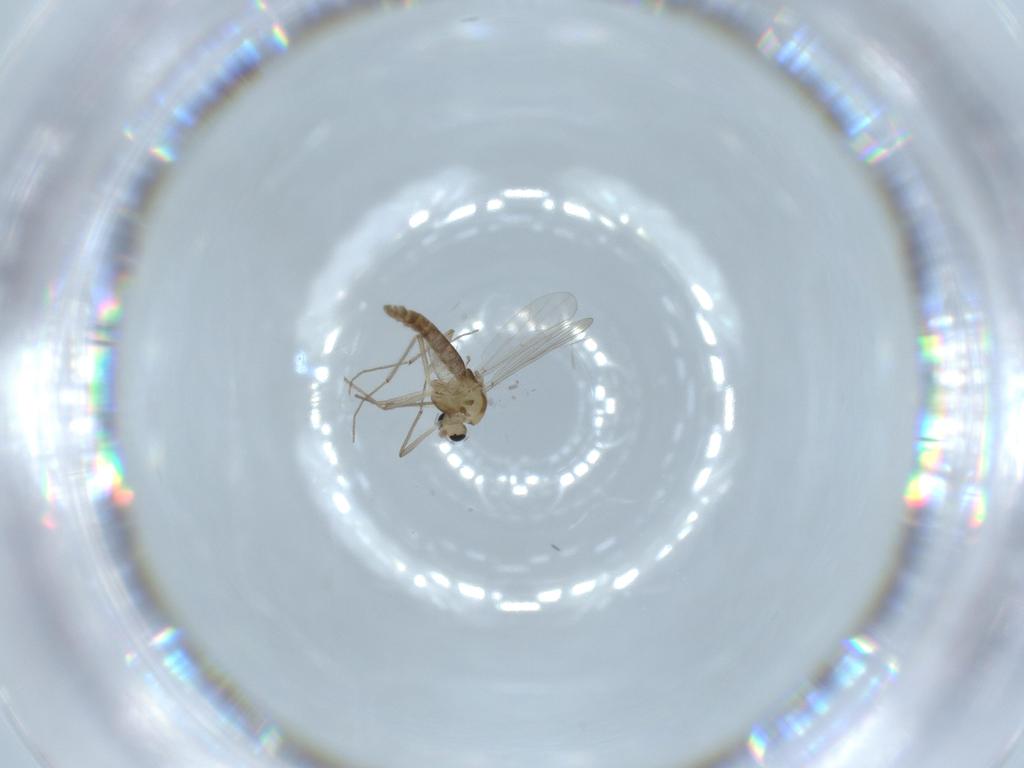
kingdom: Animalia
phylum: Arthropoda
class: Insecta
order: Diptera
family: Chironomidae
